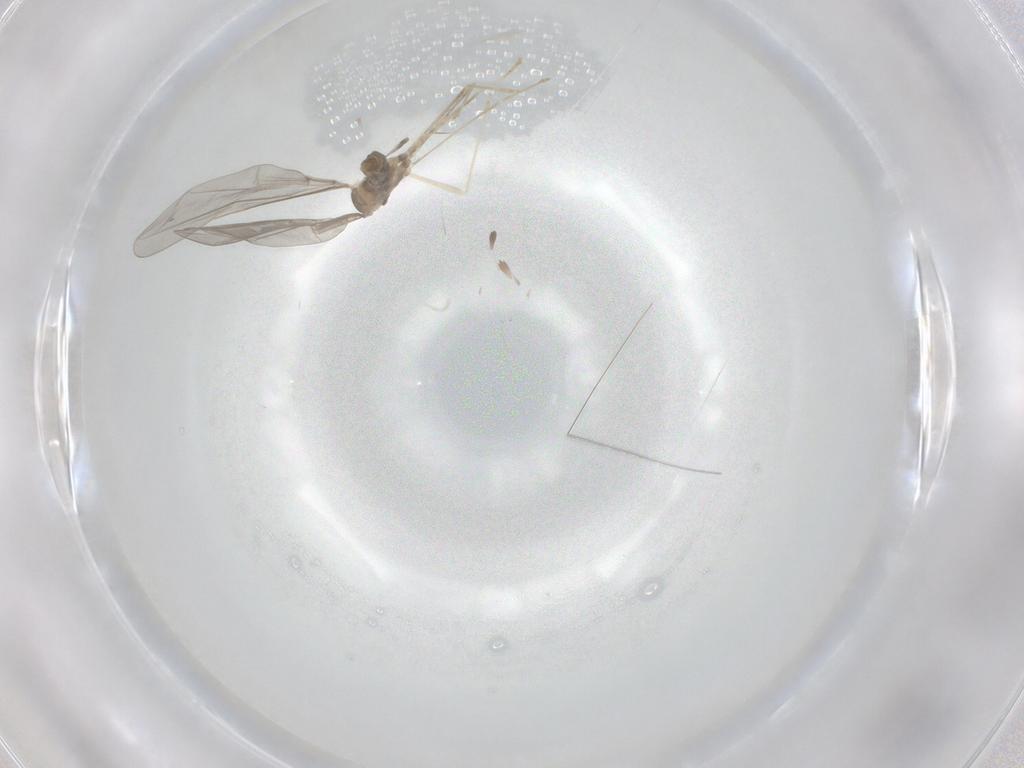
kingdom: Animalia
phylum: Arthropoda
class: Insecta
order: Diptera
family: Cecidomyiidae
